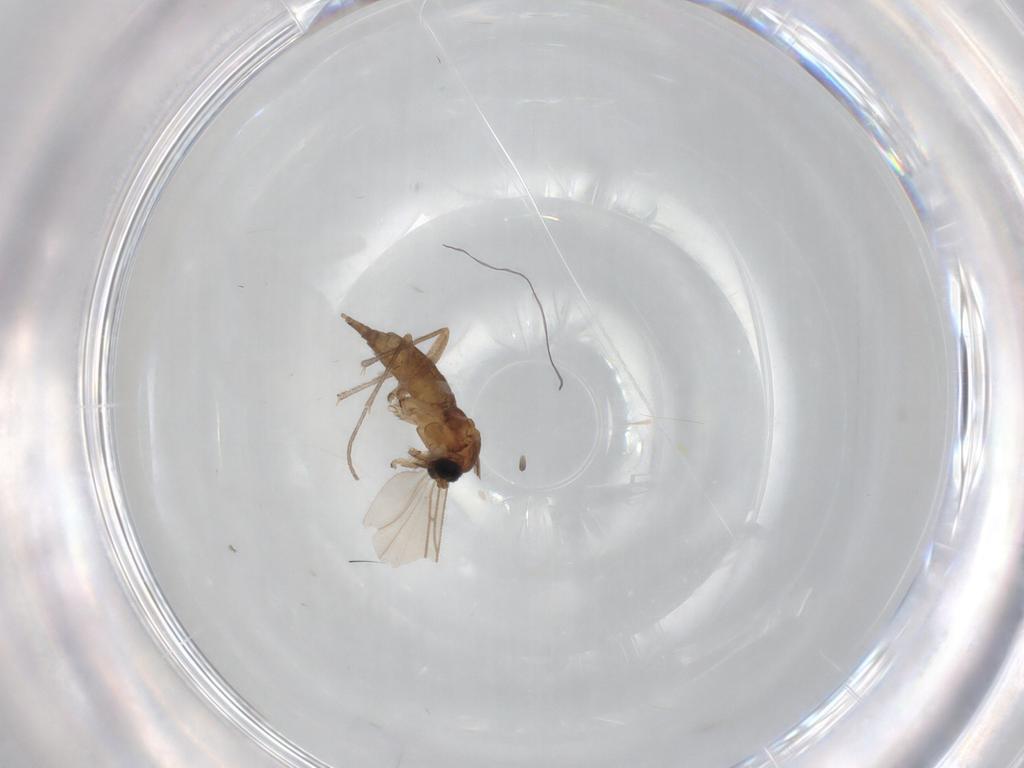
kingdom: Animalia
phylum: Arthropoda
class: Insecta
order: Diptera
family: Sciaridae
